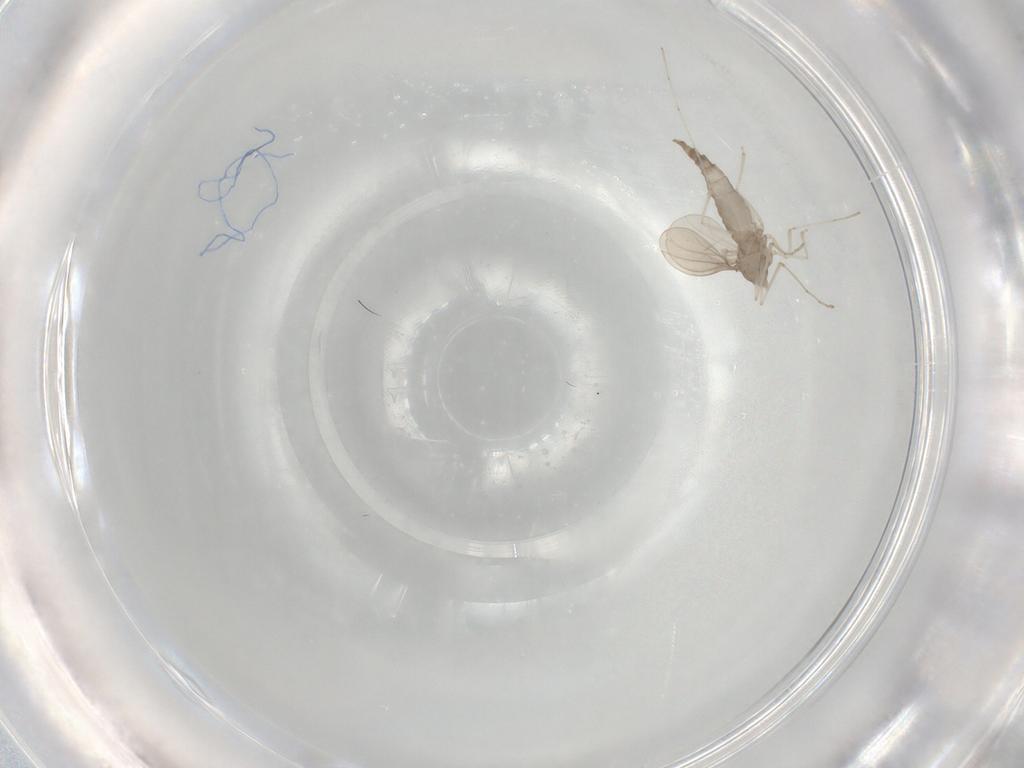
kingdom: Animalia
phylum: Arthropoda
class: Insecta
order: Diptera
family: Cecidomyiidae
